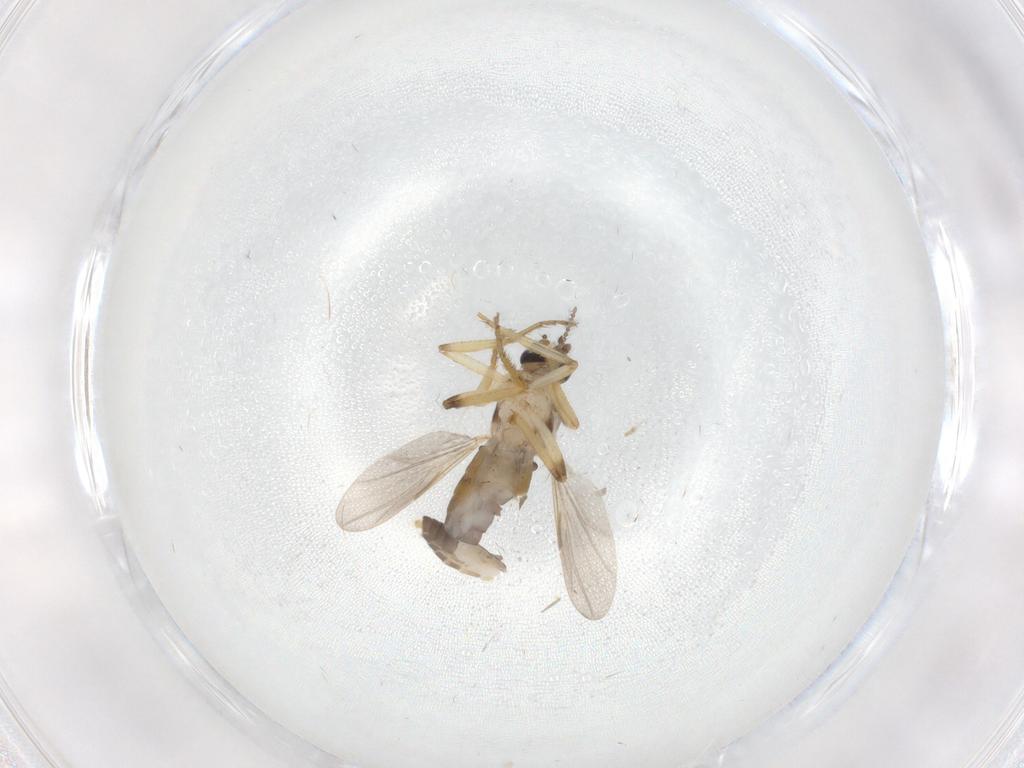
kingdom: Animalia
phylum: Arthropoda
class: Insecta
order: Diptera
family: Ceratopogonidae
